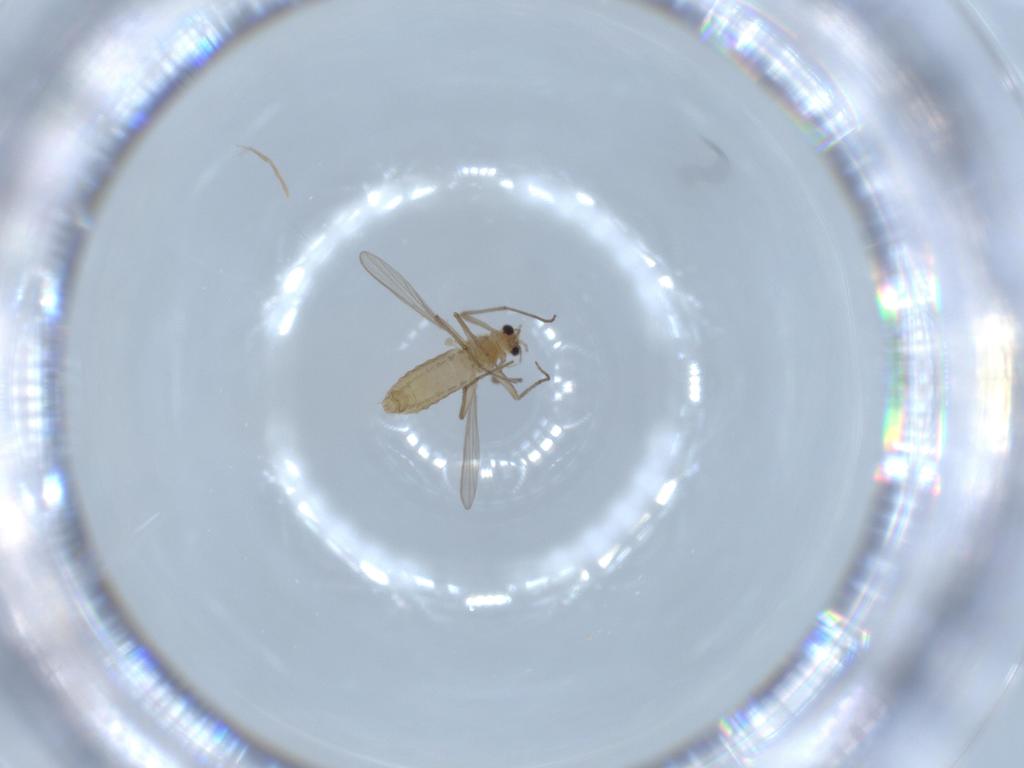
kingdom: Animalia
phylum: Arthropoda
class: Insecta
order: Diptera
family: Chironomidae
